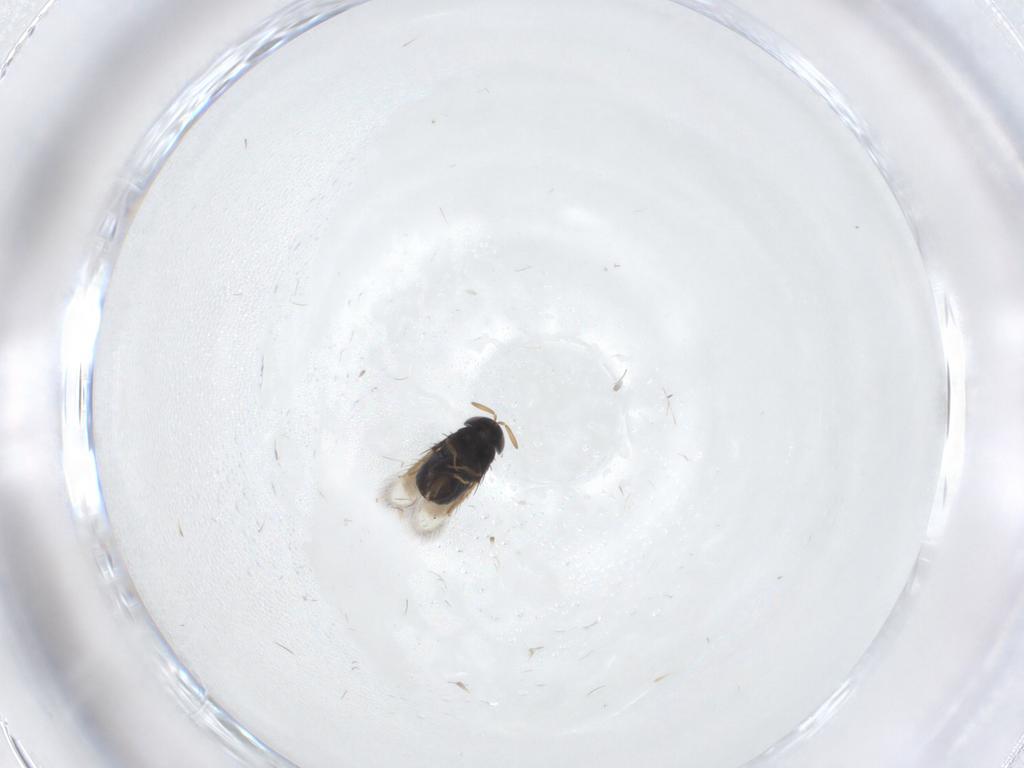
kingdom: Animalia
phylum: Arthropoda
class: Insecta
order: Hymenoptera
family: Signiphoridae
